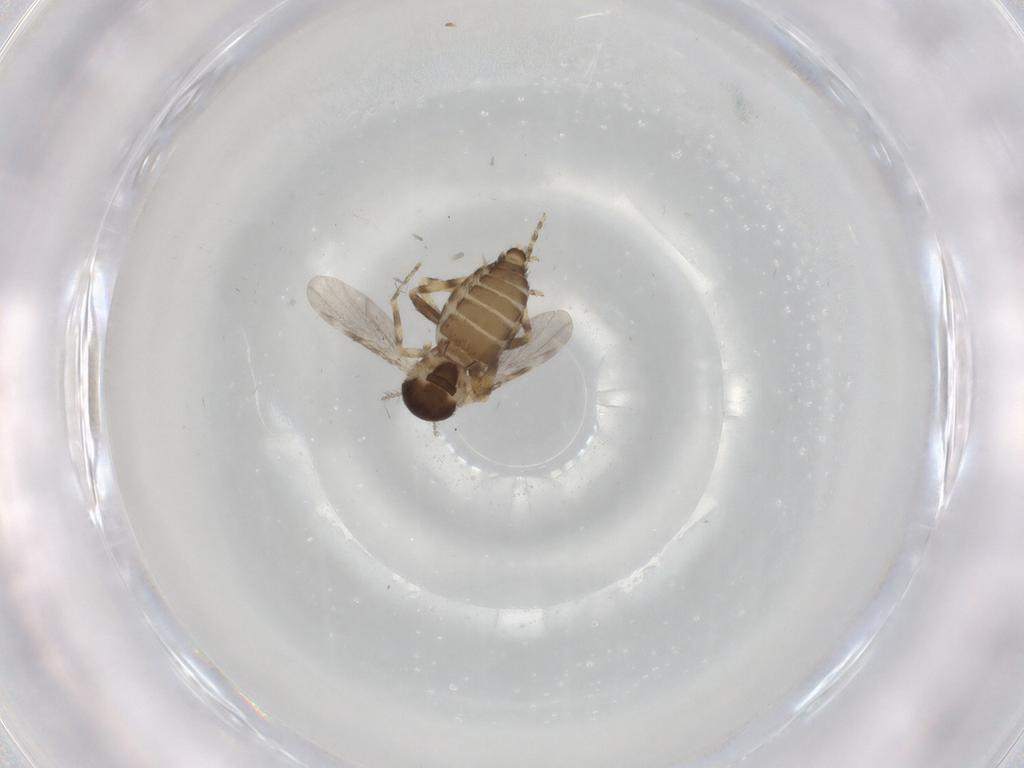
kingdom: Animalia
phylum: Arthropoda
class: Insecta
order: Diptera
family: Ceratopogonidae
